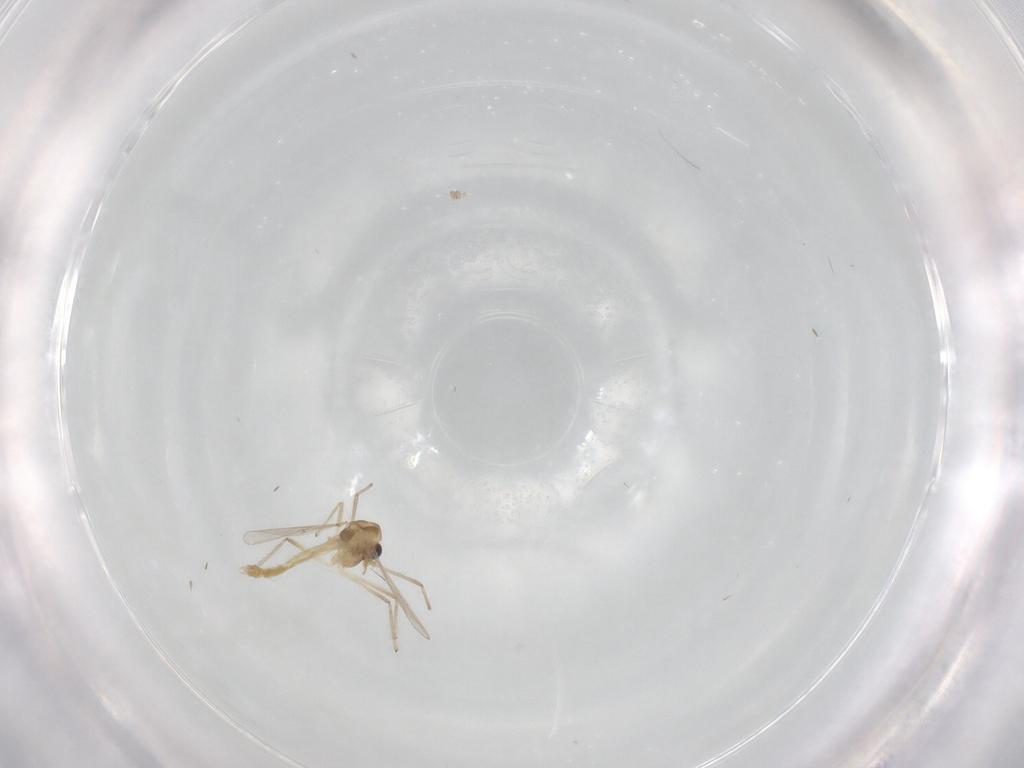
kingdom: Animalia
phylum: Arthropoda
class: Insecta
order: Diptera
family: Chironomidae
